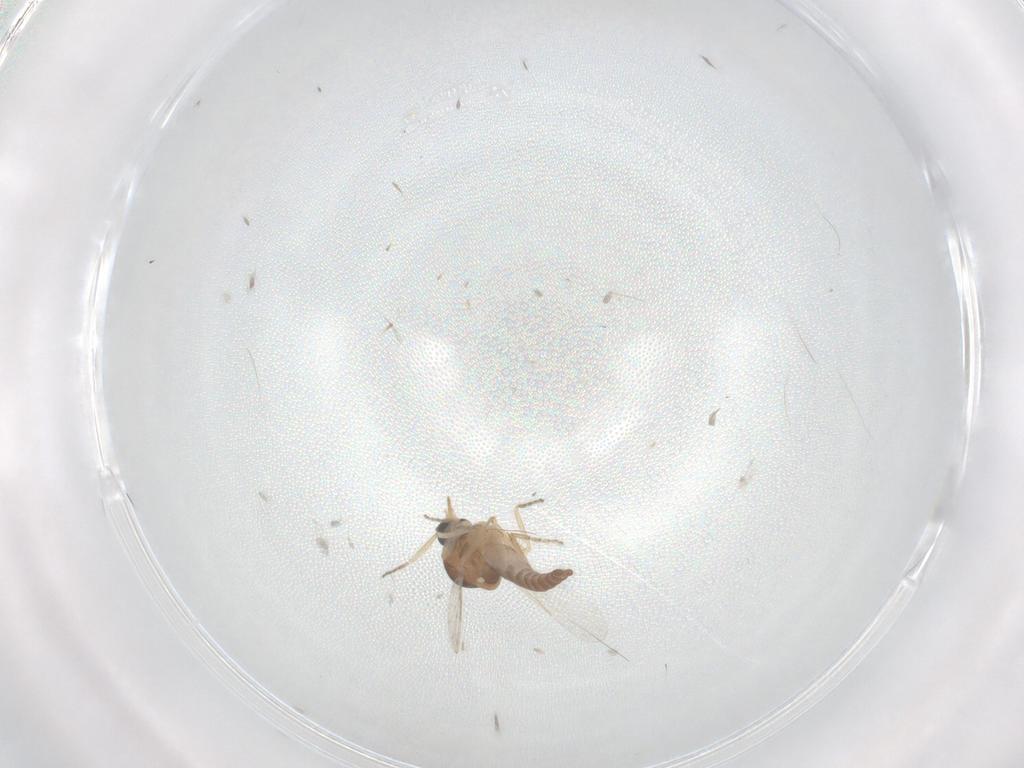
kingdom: Animalia
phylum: Arthropoda
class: Insecta
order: Diptera
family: Ceratopogonidae
